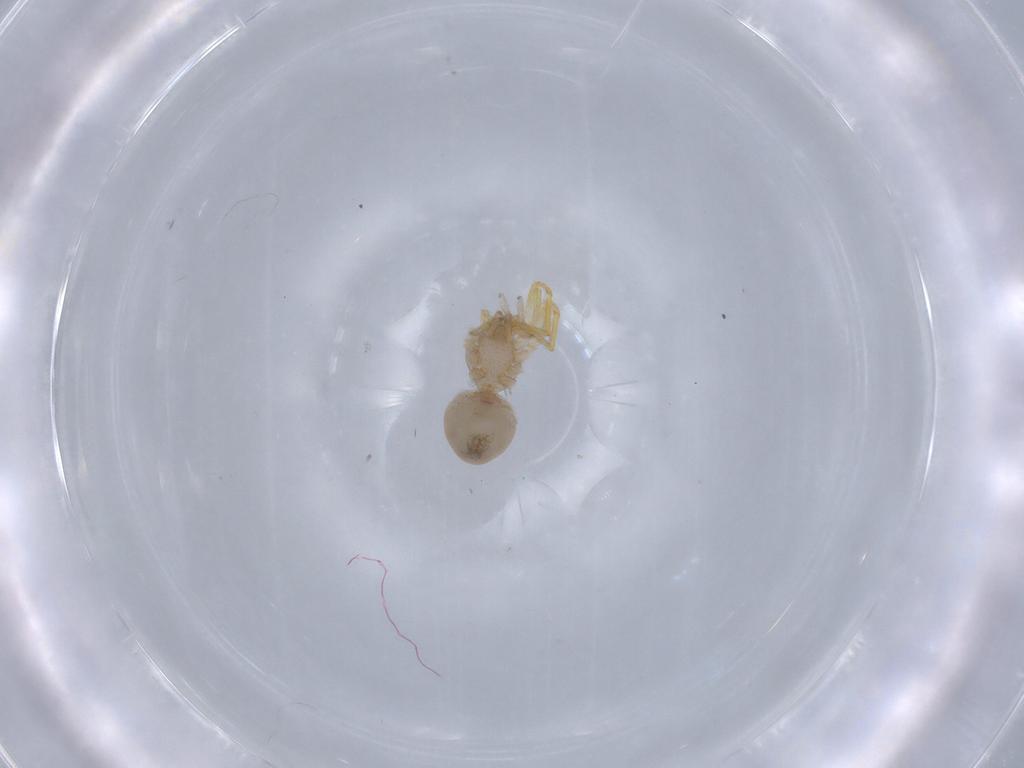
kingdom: Animalia
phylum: Arthropoda
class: Arachnida
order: Araneae
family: Oonopidae
